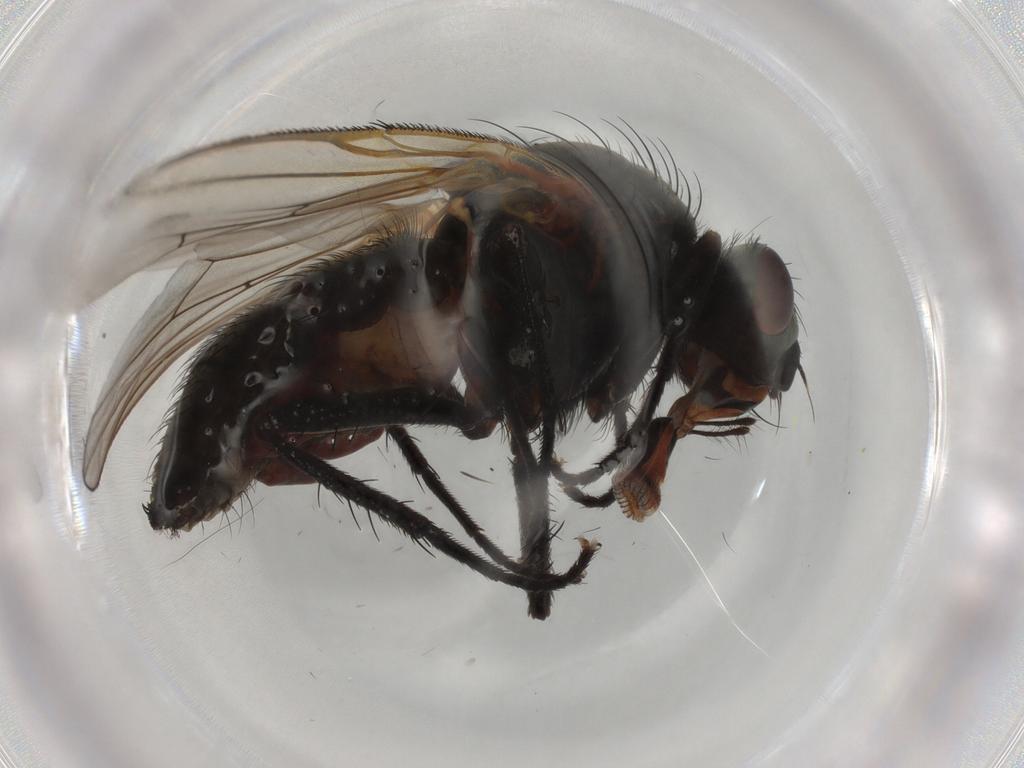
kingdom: Animalia
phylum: Arthropoda
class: Insecta
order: Diptera
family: Anthomyiidae
